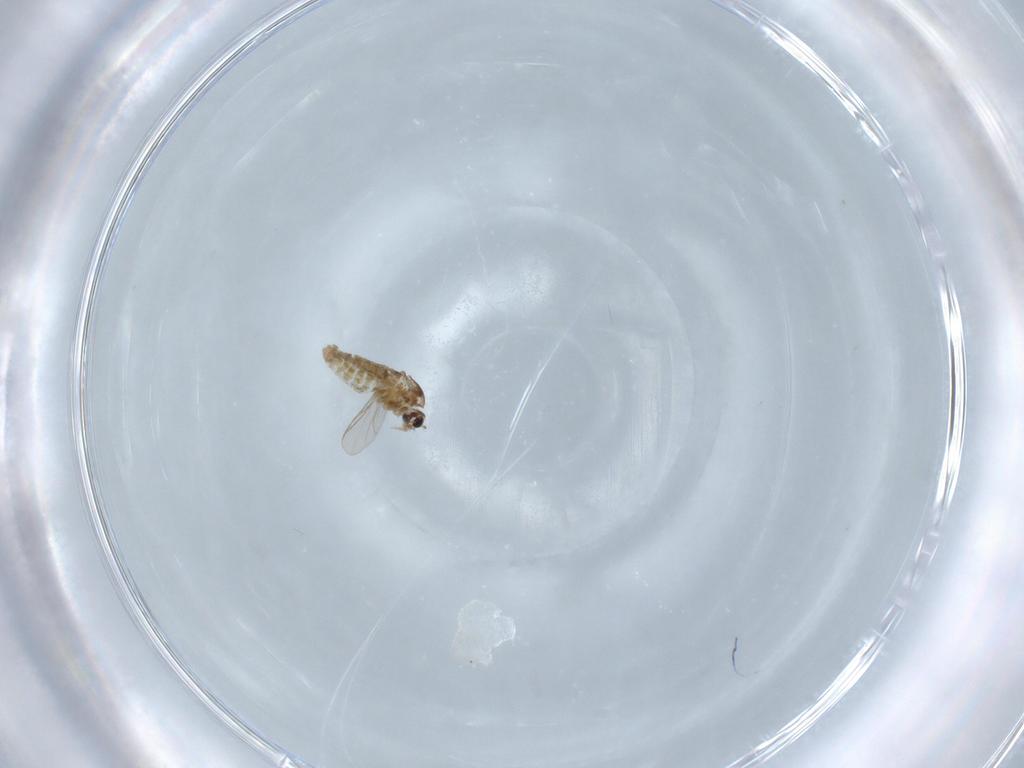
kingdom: Animalia
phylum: Arthropoda
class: Insecta
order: Diptera
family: Chironomidae
